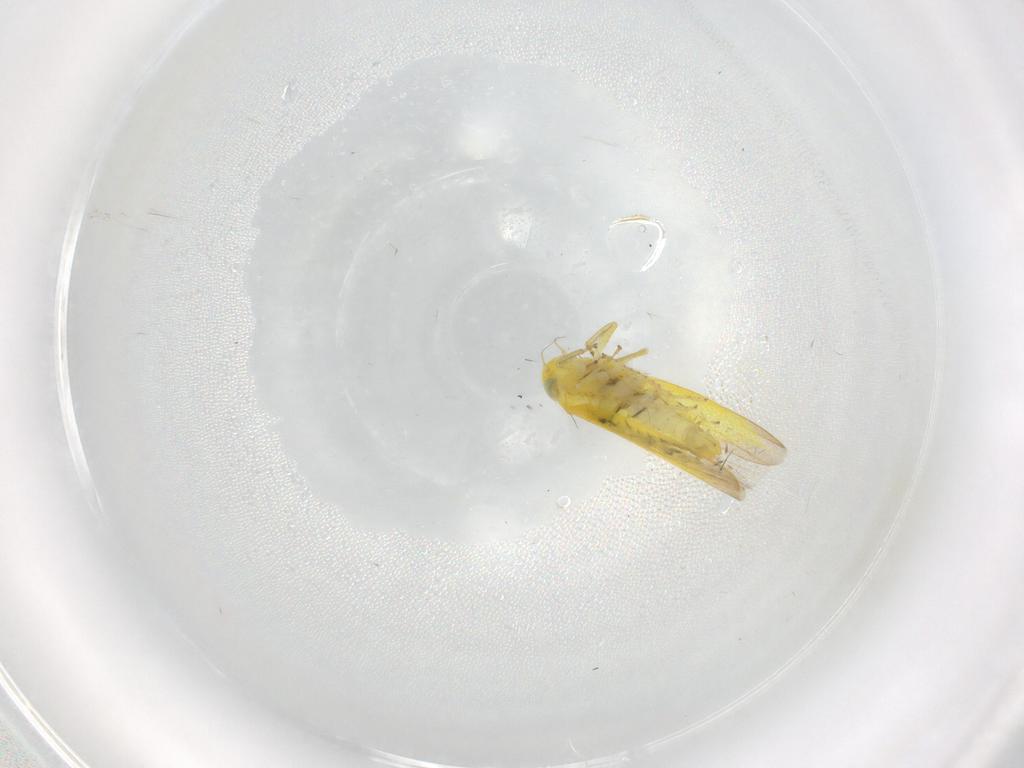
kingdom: Animalia
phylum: Arthropoda
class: Insecta
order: Hemiptera
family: Cicadellidae
